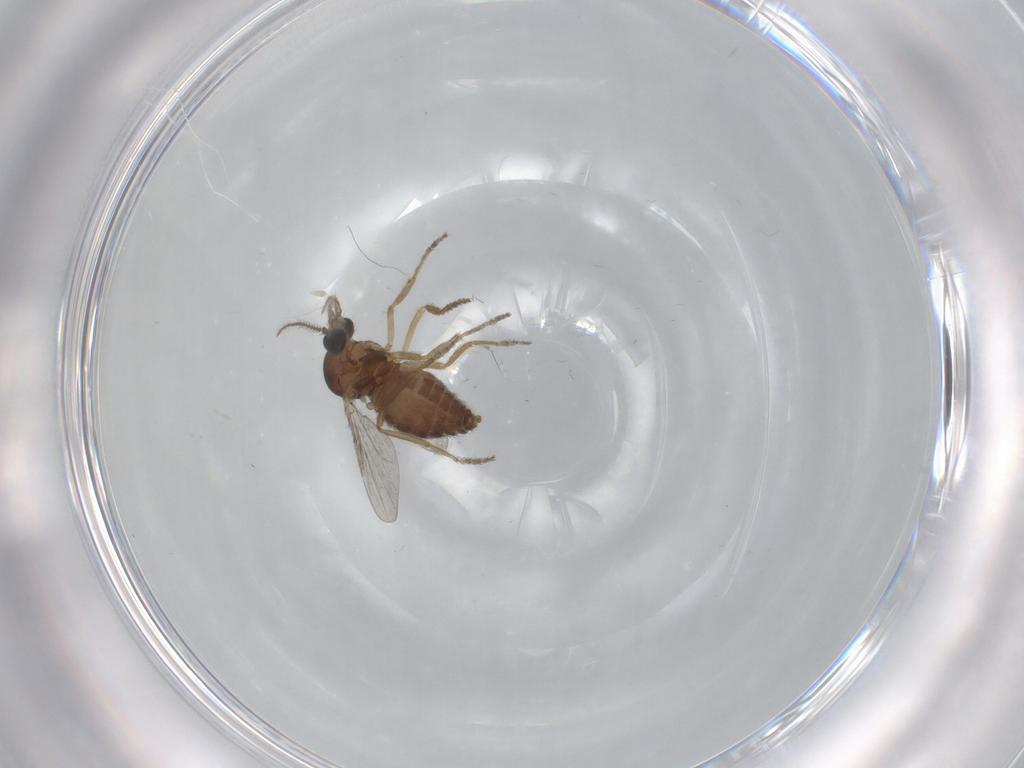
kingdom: Animalia
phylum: Arthropoda
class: Insecta
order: Diptera
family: Ceratopogonidae
